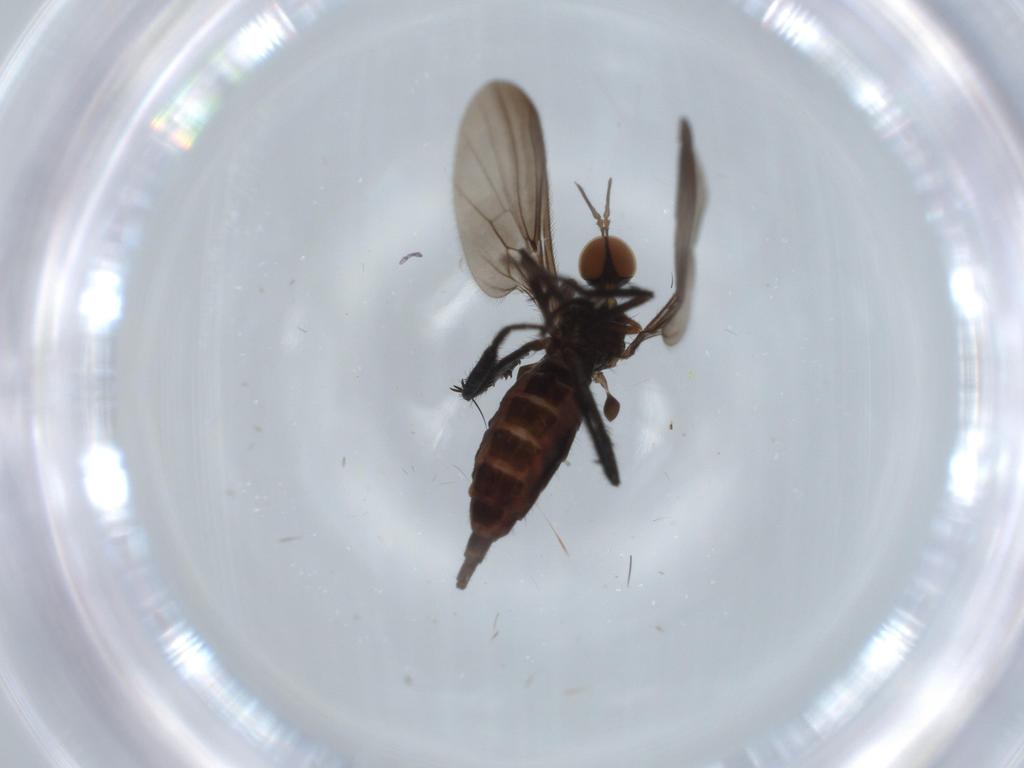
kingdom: Animalia
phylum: Arthropoda
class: Insecta
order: Diptera
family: Empididae
